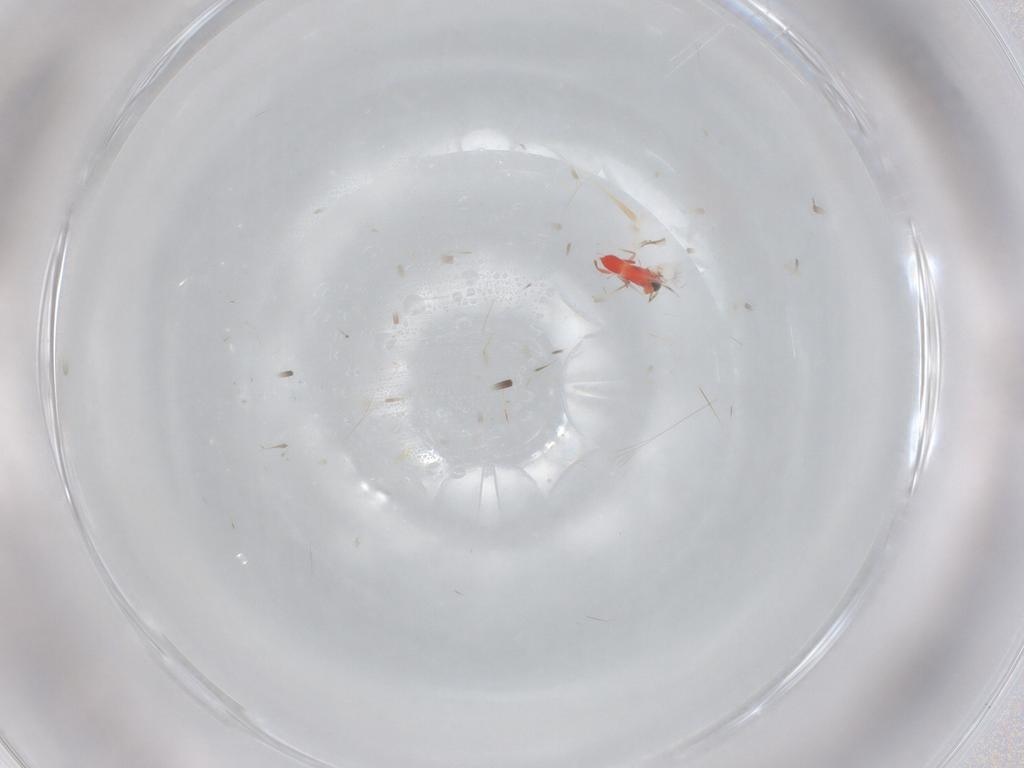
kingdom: Animalia
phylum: Arthropoda
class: Insecta
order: Hymenoptera
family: Trichogrammatidae
